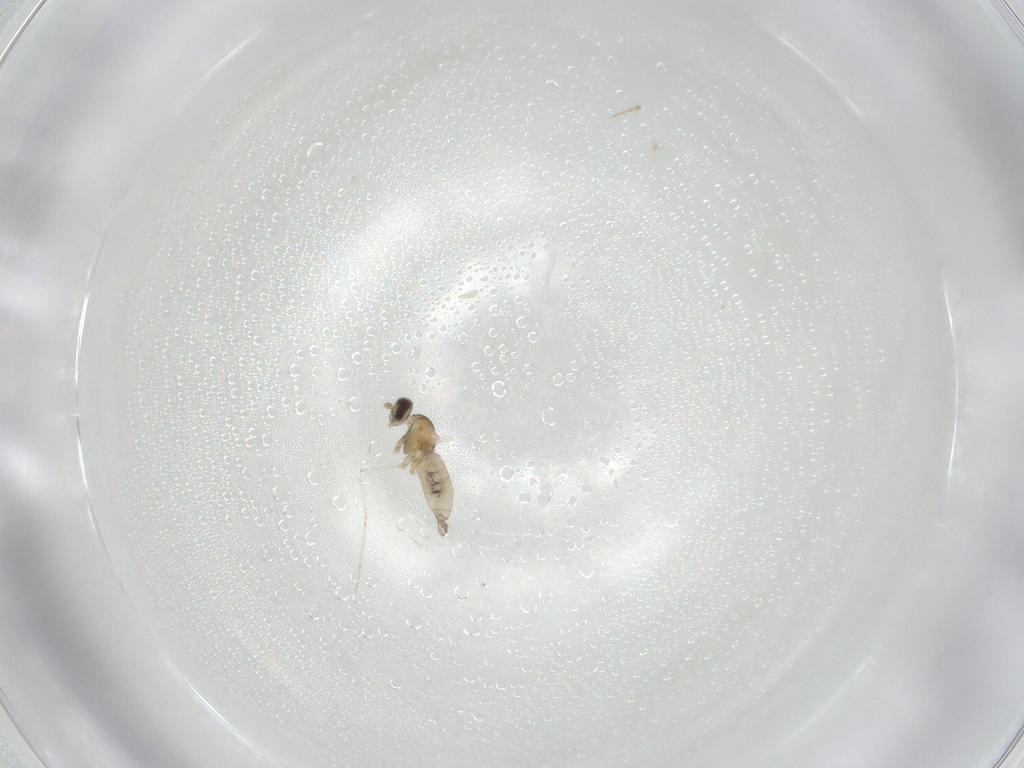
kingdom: Animalia
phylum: Arthropoda
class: Insecta
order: Diptera
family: Cecidomyiidae
